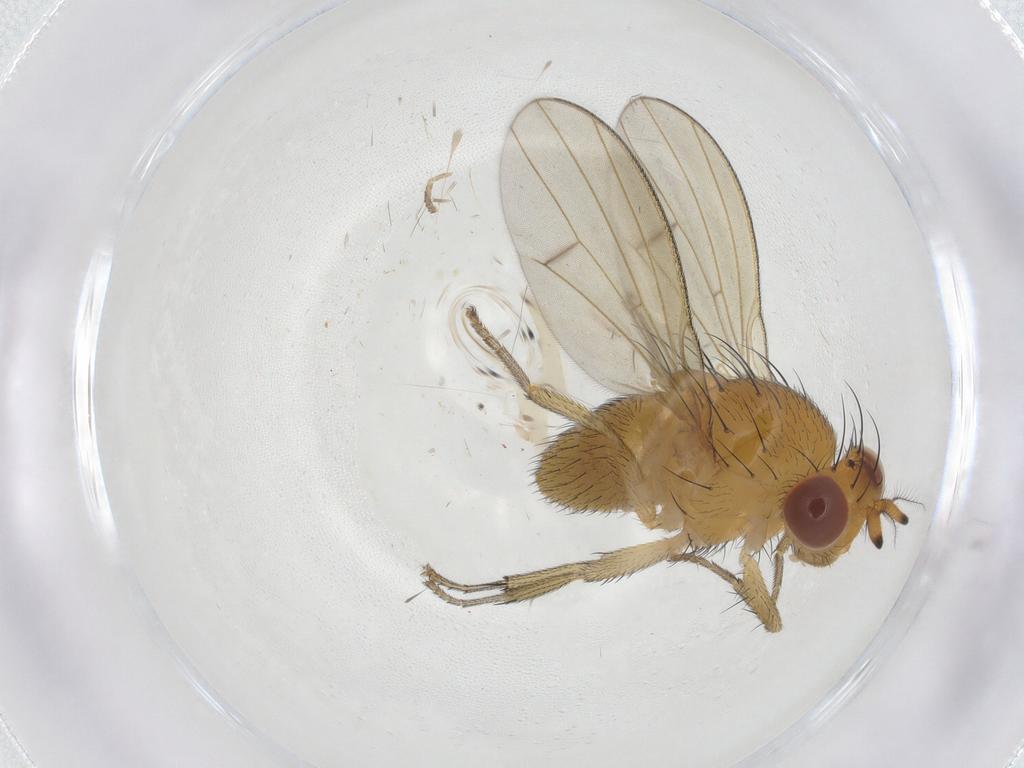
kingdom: Animalia
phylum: Arthropoda
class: Insecta
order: Diptera
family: Lauxaniidae
